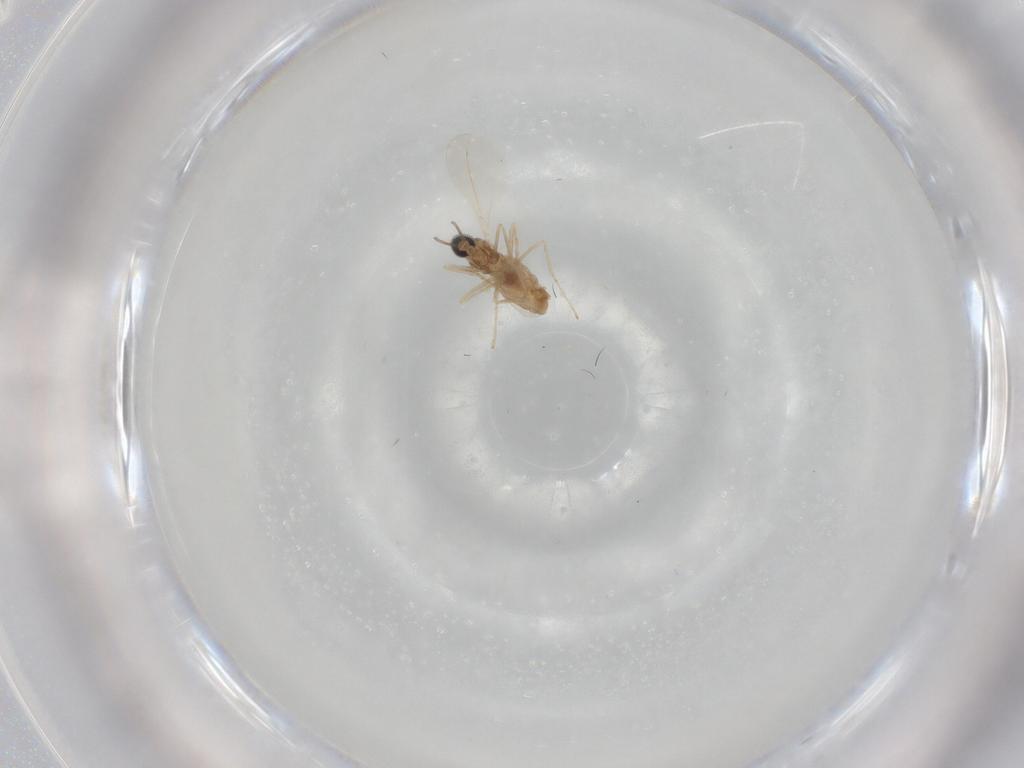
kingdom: Animalia
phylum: Arthropoda
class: Insecta
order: Diptera
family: Cecidomyiidae
